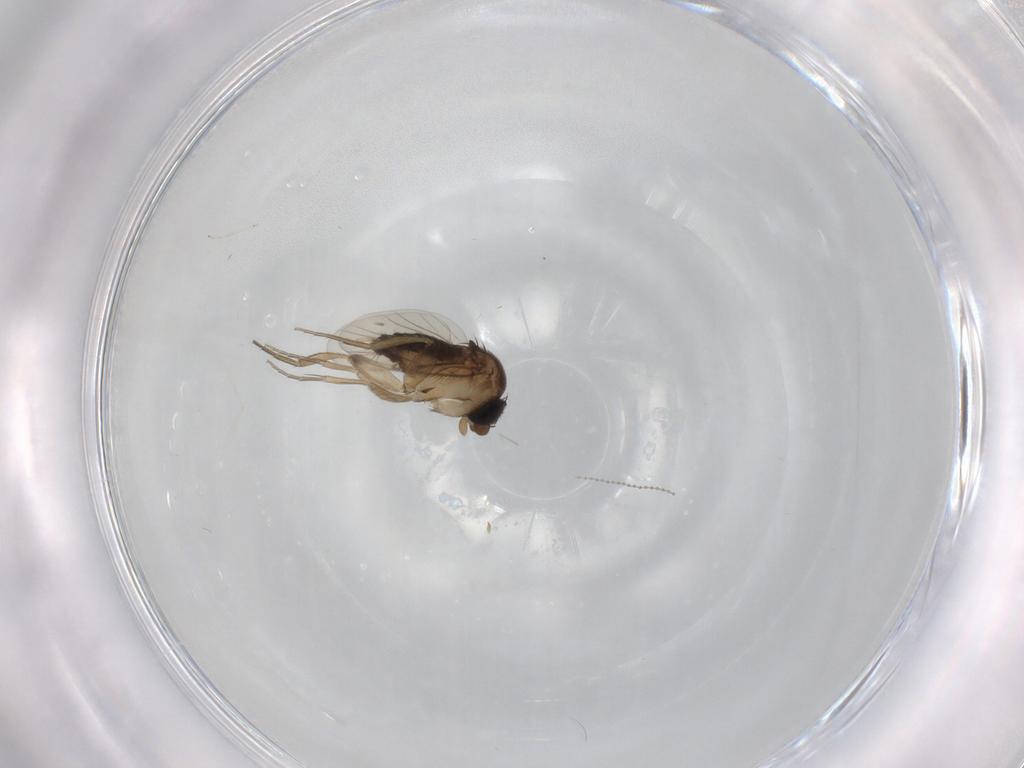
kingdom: Animalia
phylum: Arthropoda
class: Insecta
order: Diptera
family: Phoridae
